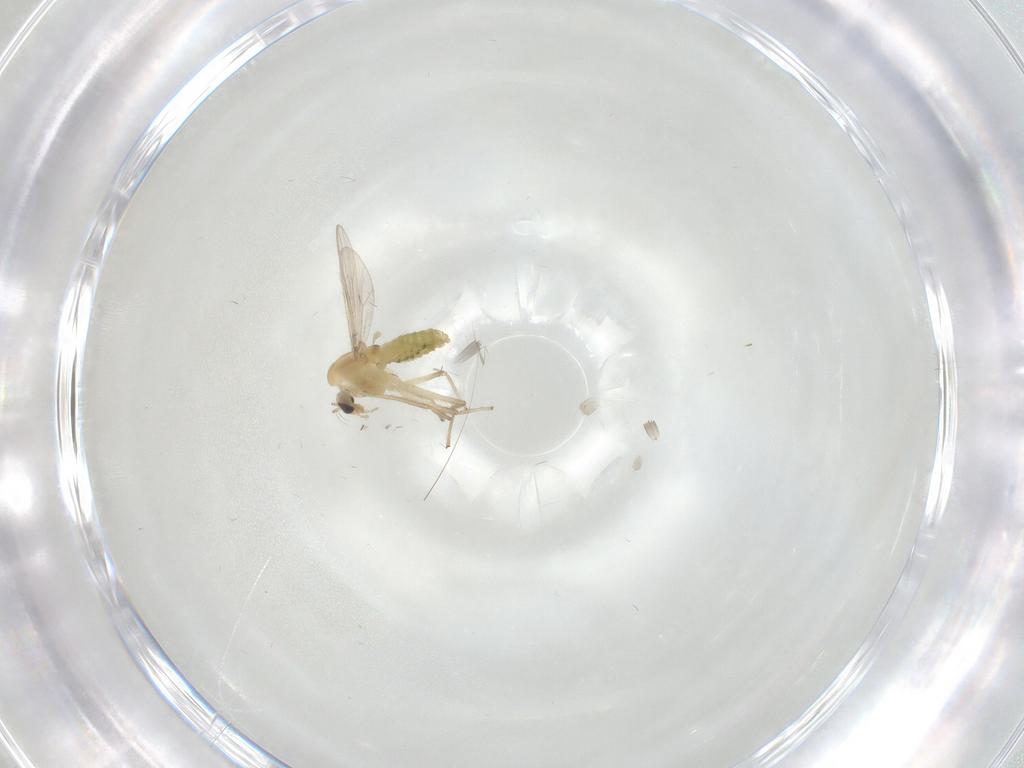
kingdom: Animalia
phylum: Arthropoda
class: Insecta
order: Diptera
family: Chironomidae
